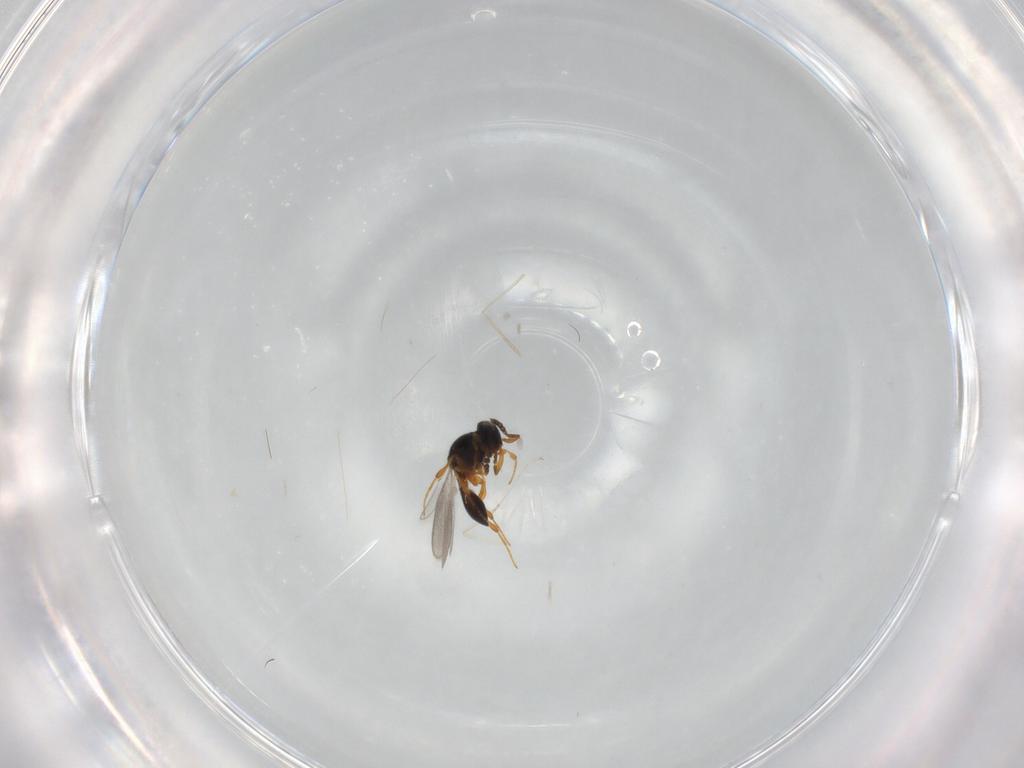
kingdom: Animalia
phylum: Arthropoda
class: Insecta
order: Hymenoptera
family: Platygastridae
